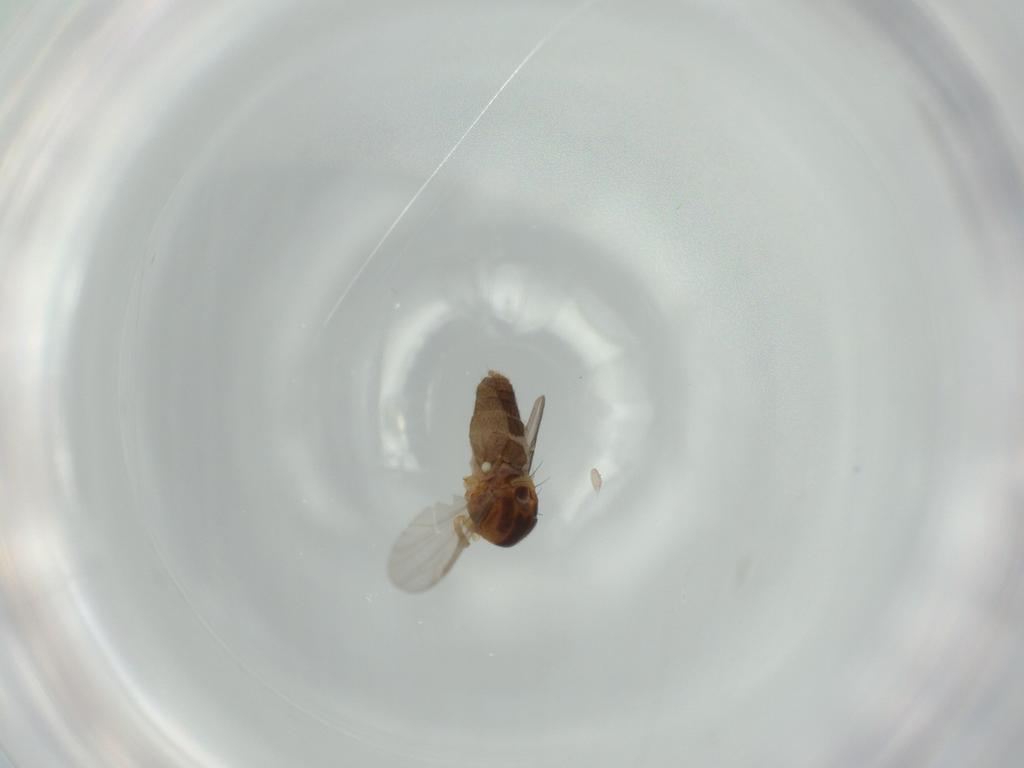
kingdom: Animalia
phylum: Arthropoda
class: Insecta
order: Diptera
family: Ceratopogonidae
